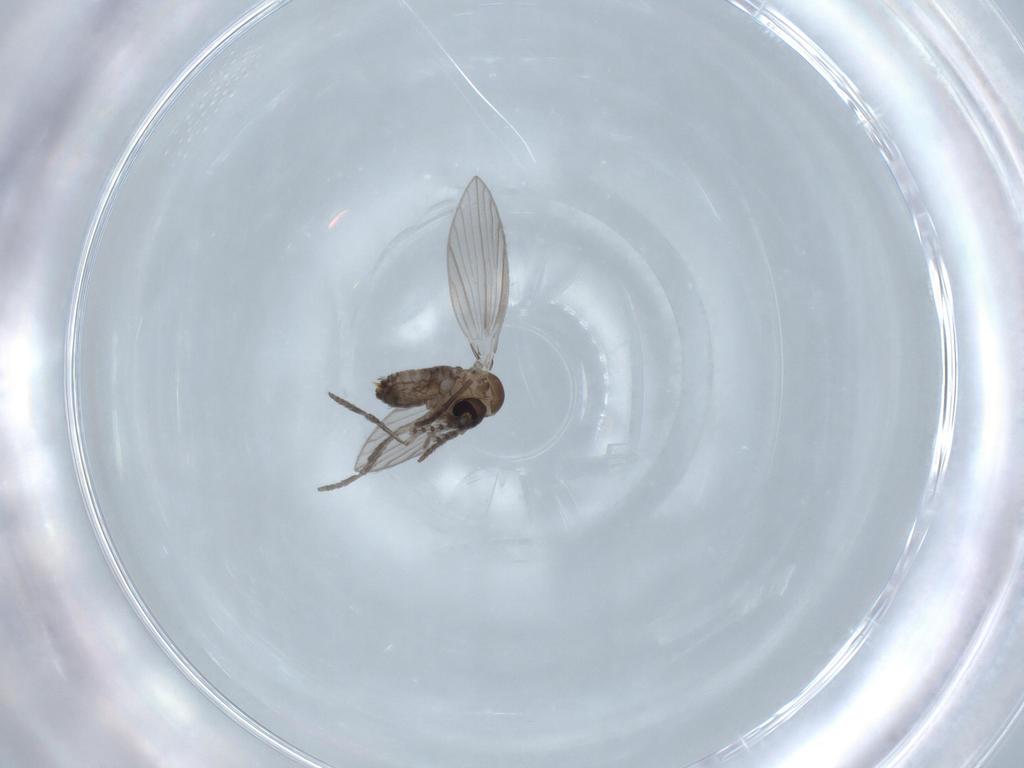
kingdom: Animalia
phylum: Arthropoda
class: Insecta
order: Diptera
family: Psychodidae
